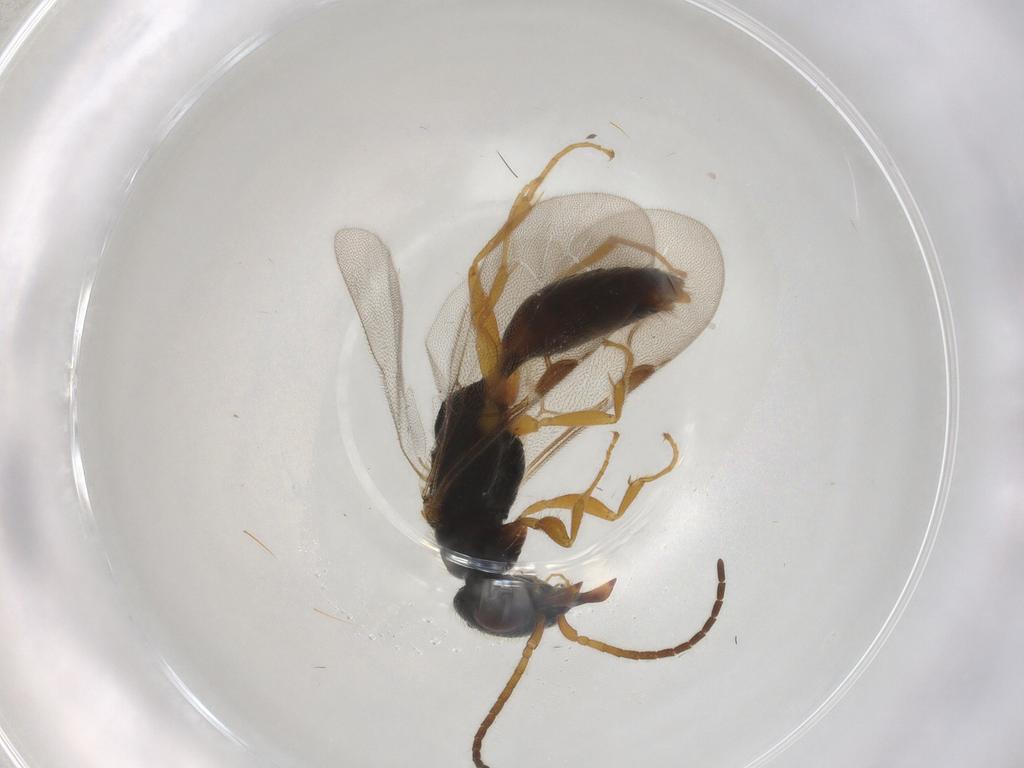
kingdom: Animalia
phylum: Arthropoda
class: Insecta
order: Hymenoptera
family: Bethylidae
